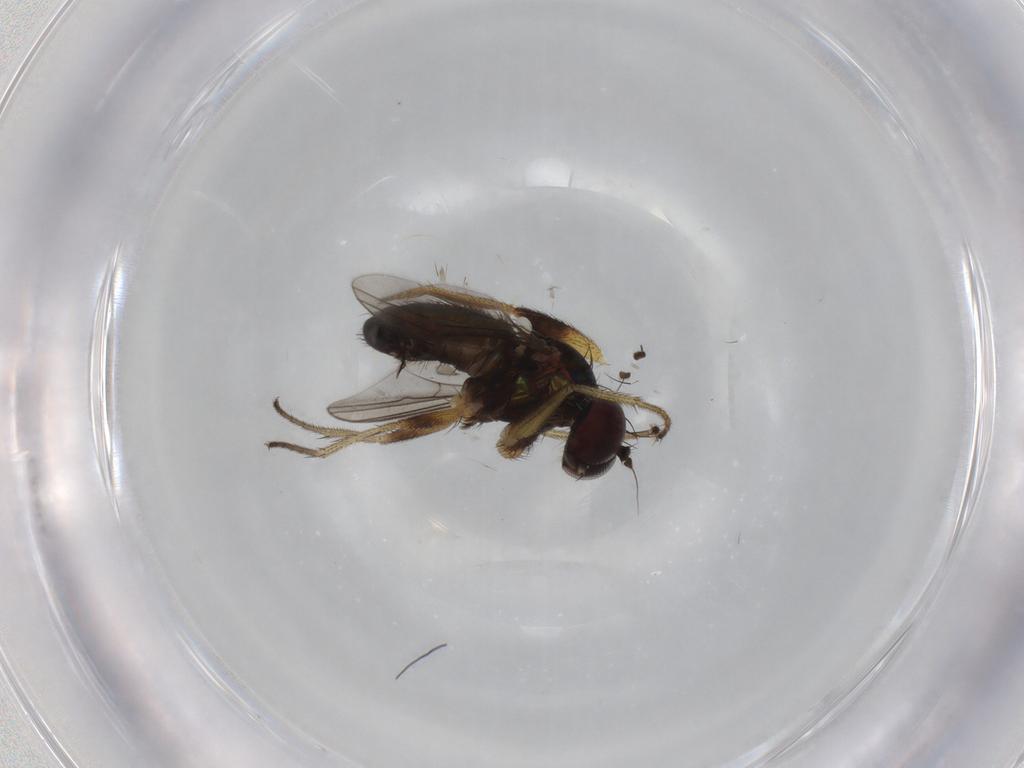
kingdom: Animalia
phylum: Arthropoda
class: Insecta
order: Diptera
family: Dolichopodidae
